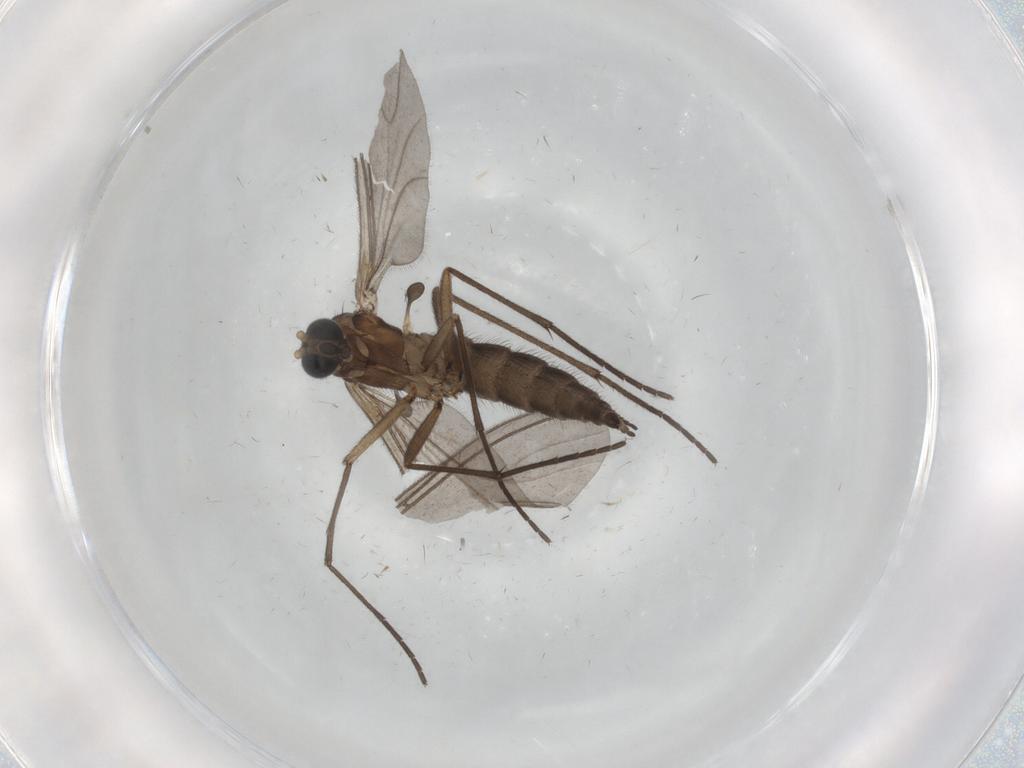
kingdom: Animalia
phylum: Arthropoda
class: Insecta
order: Diptera
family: Sciaridae
